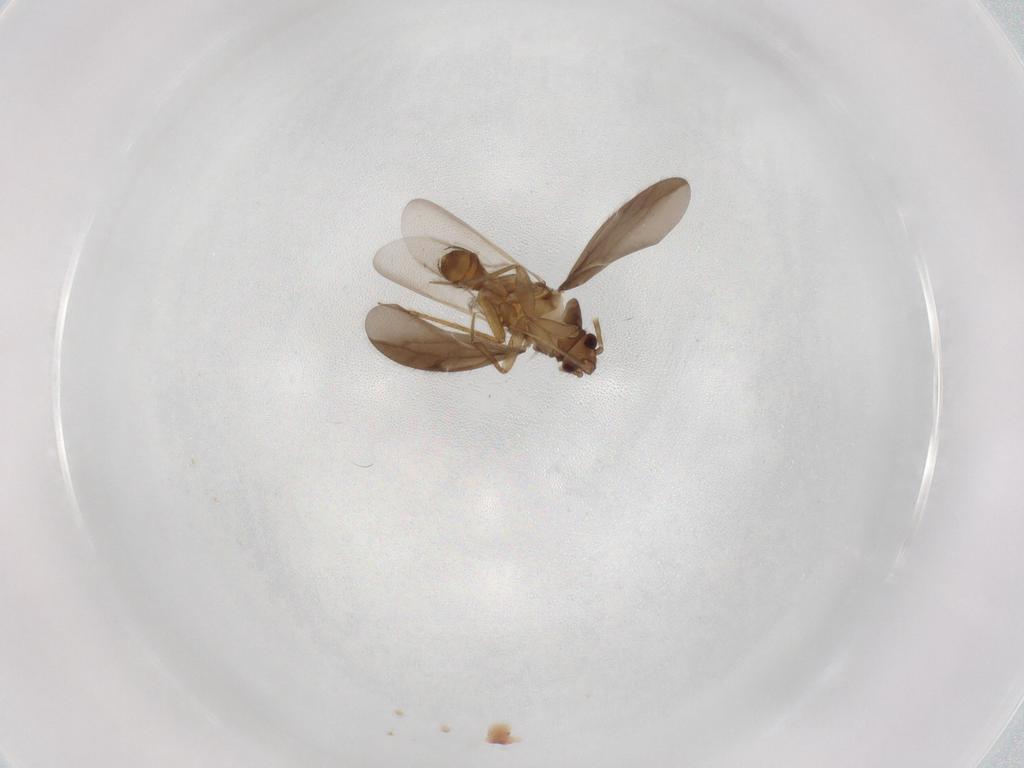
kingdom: Animalia
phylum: Arthropoda
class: Insecta
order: Hemiptera
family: Ceratocombidae
